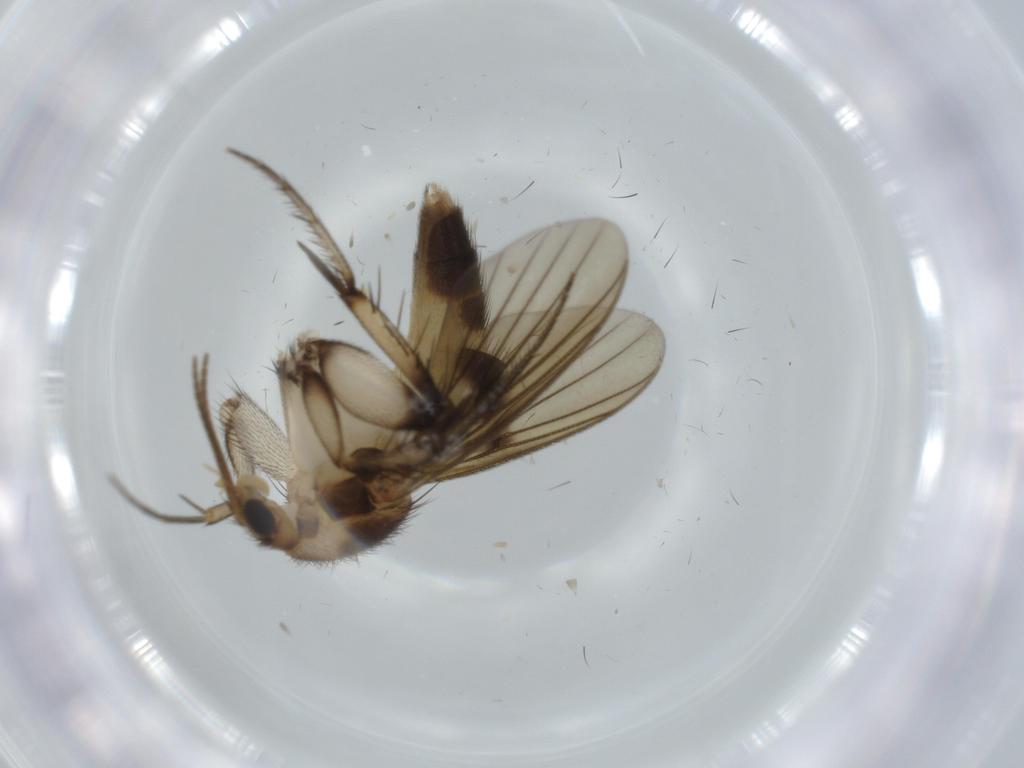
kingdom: Animalia
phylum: Arthropoda
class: Insecta
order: Diptera
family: Mycetophilidae
